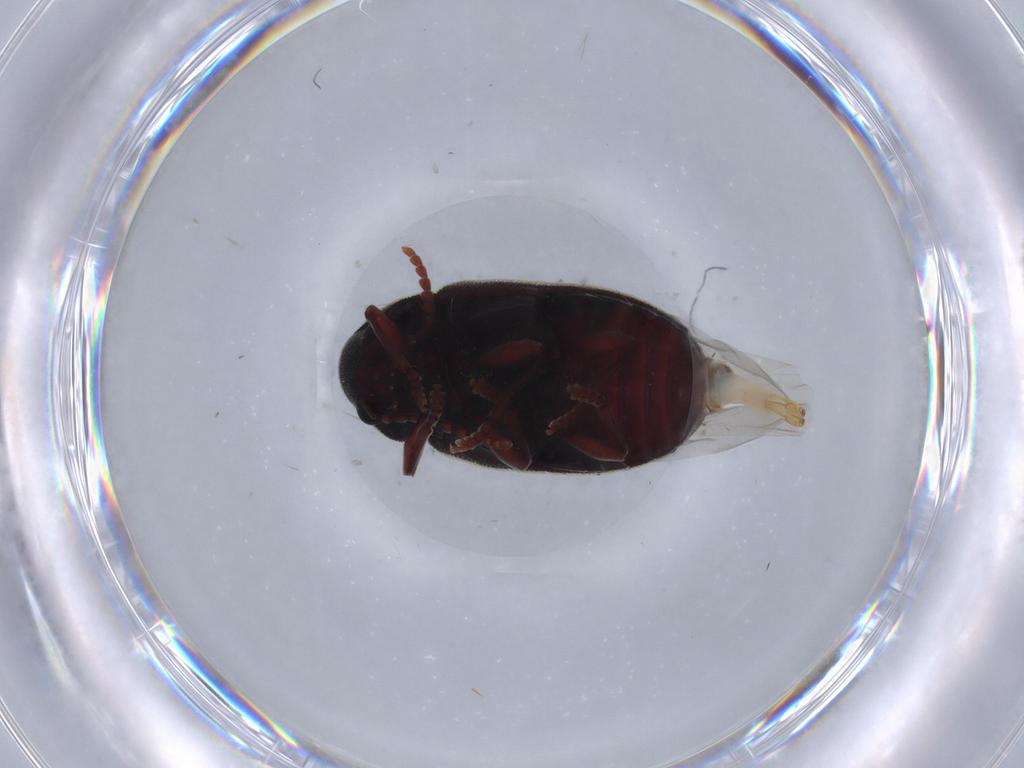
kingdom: Animalia
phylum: Arthropoda
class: Insecta
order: Coleoptera
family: Ptinidae
